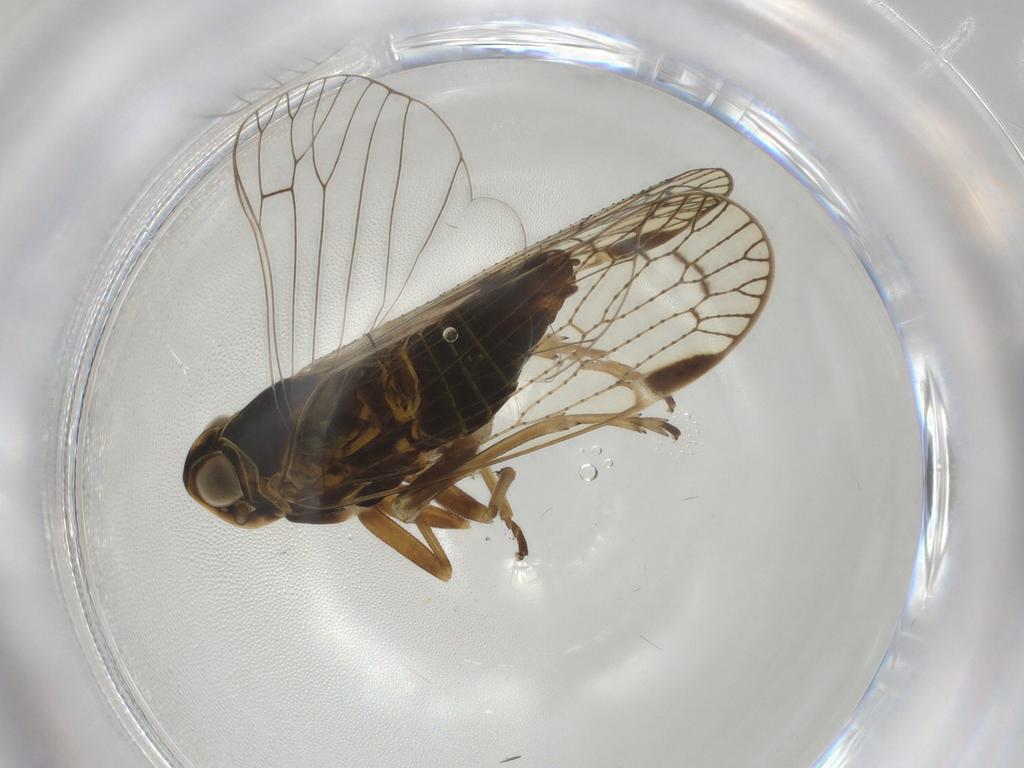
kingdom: Animalia
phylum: Arthropoda
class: Insecta
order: Hemiptera
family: Cixiidae
